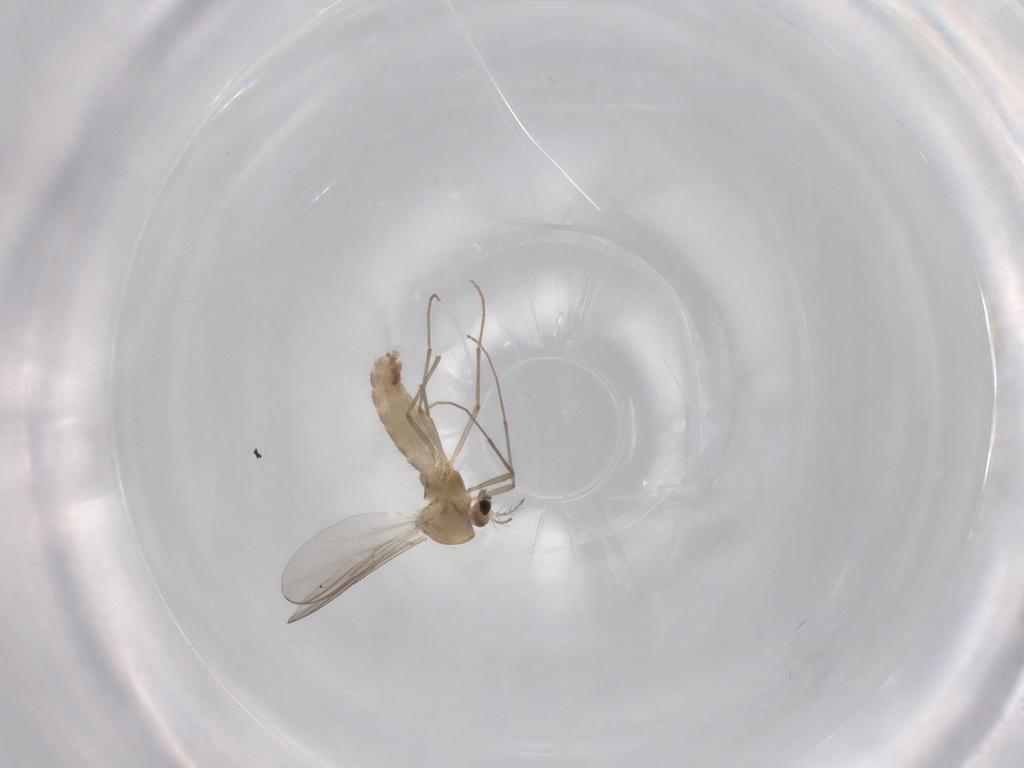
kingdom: Animalia
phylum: Arthropoda
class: Insecta
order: Diptera
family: Chironomidae
